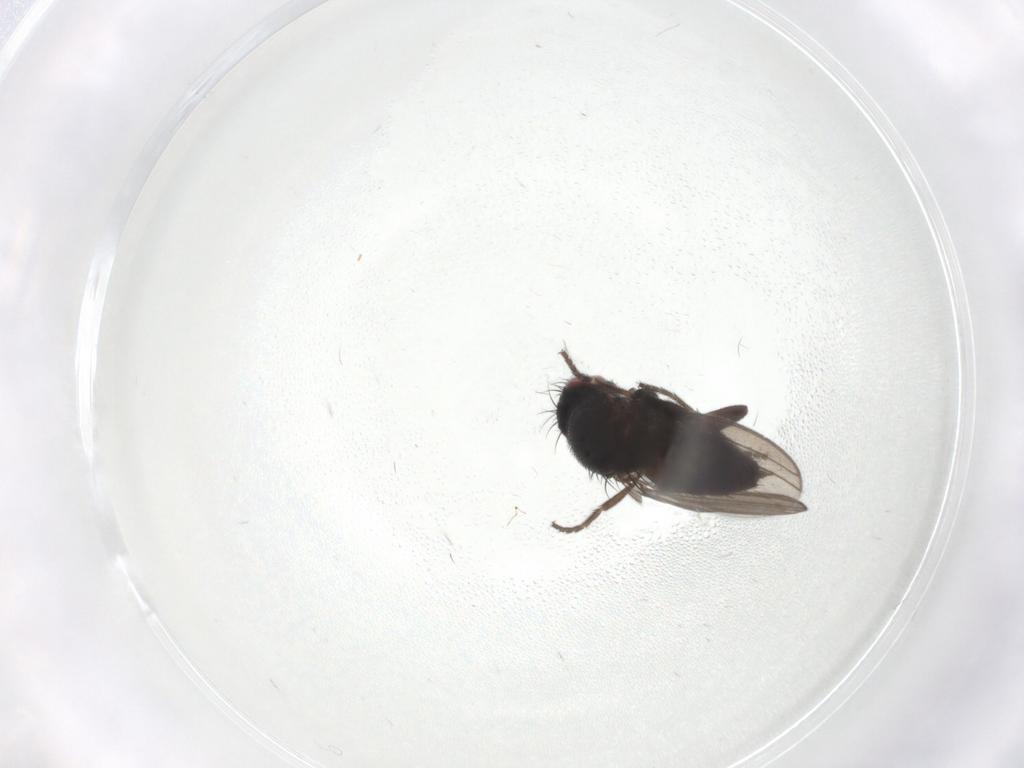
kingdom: Animalia
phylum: Arthropoda
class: Insecta
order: Diptera
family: Milichiidae
